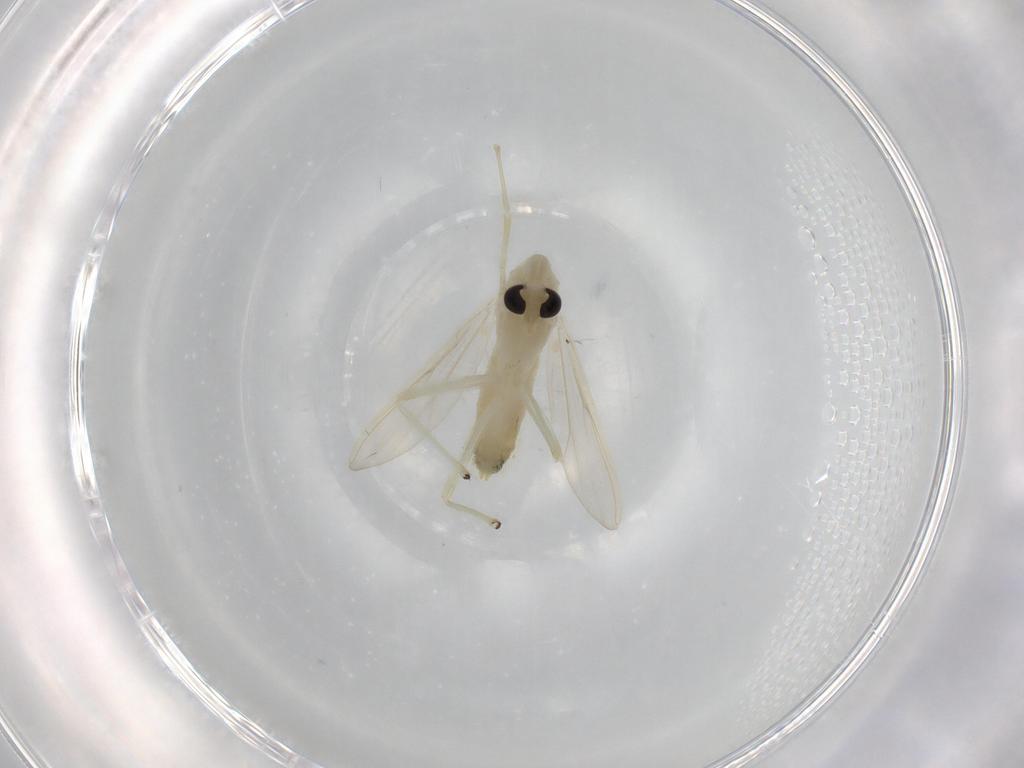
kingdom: Animalia
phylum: Arthropoda
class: Insecta
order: Diptera
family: Chironomidae
